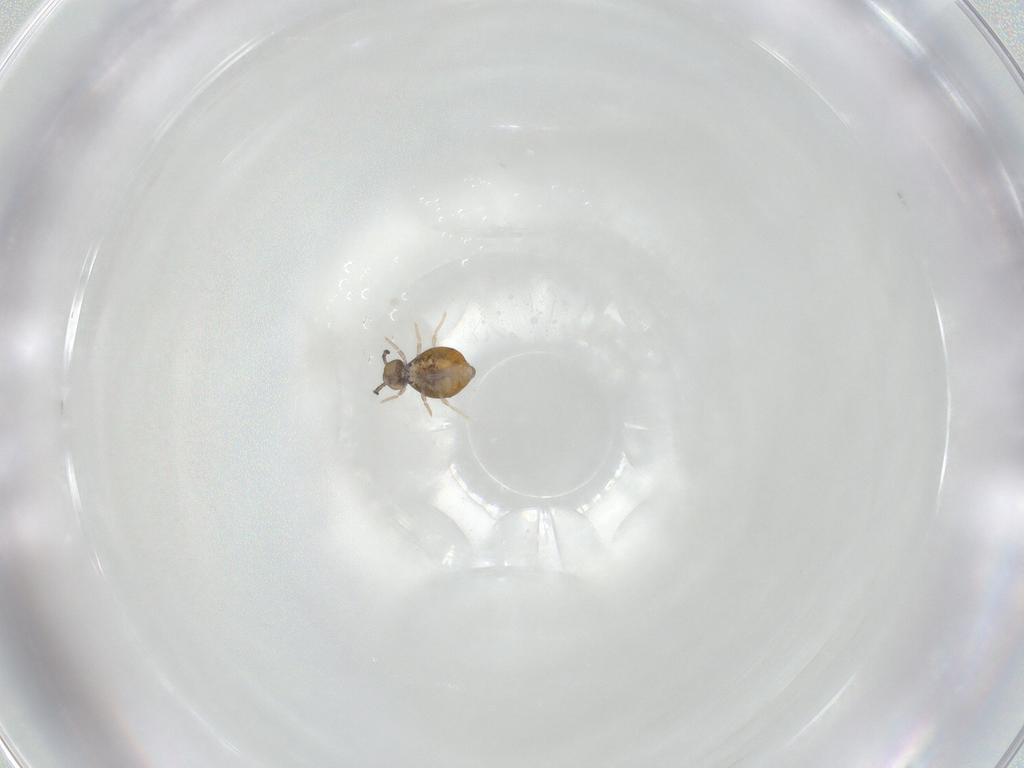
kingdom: Animalia
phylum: Arthropoda
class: Collembola
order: Symphypleona
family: Katiannidae
